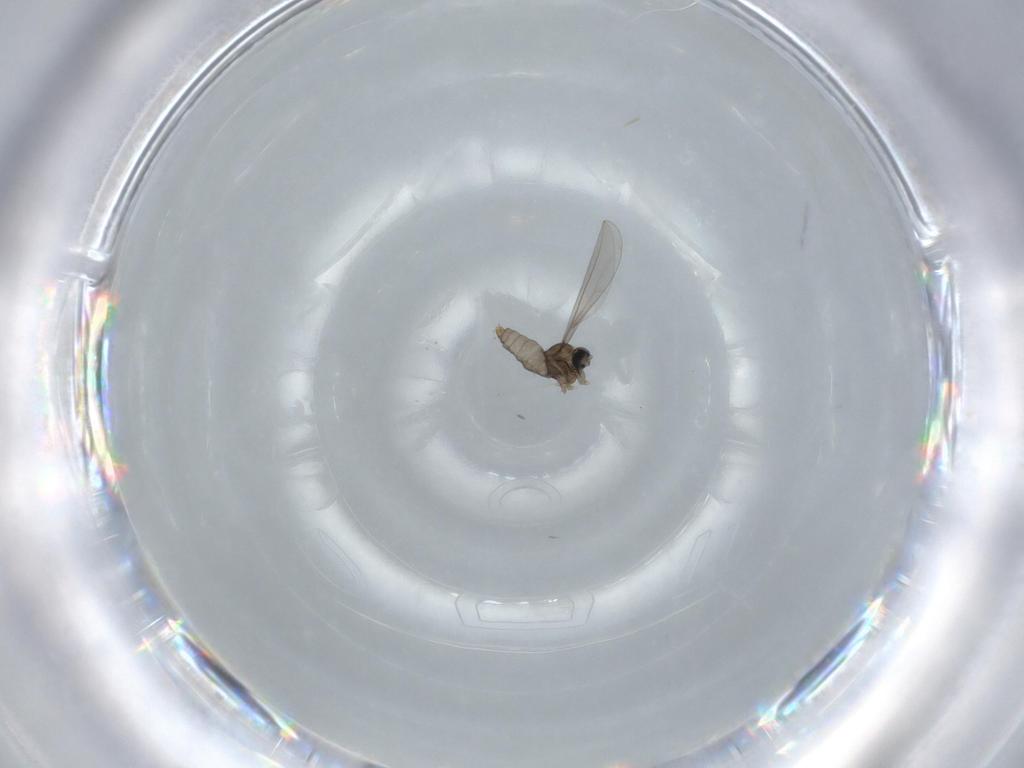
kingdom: Animalia
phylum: Arthropoda
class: Insecta
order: Diptera
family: Cecidomyiidae
